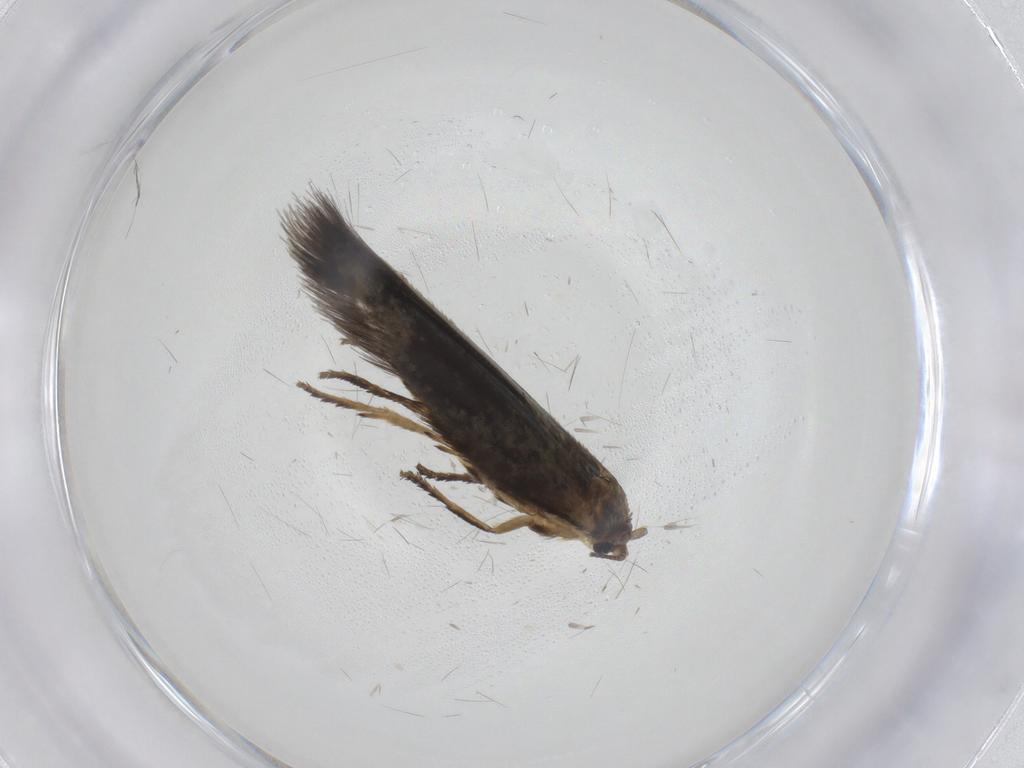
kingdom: Animalia
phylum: Arthropoda
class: Insecta
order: Lepidoptera
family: Nepticulidae
